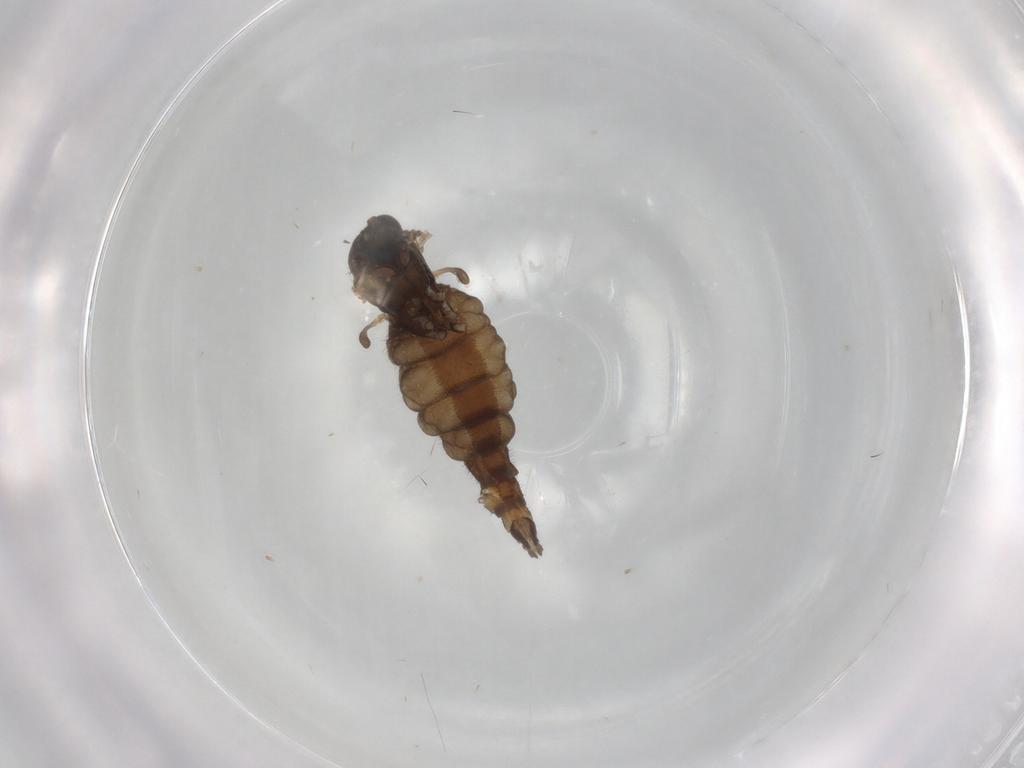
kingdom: Animalia
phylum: Arthropoda
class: Insecta
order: Diptera
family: Sciaridae
